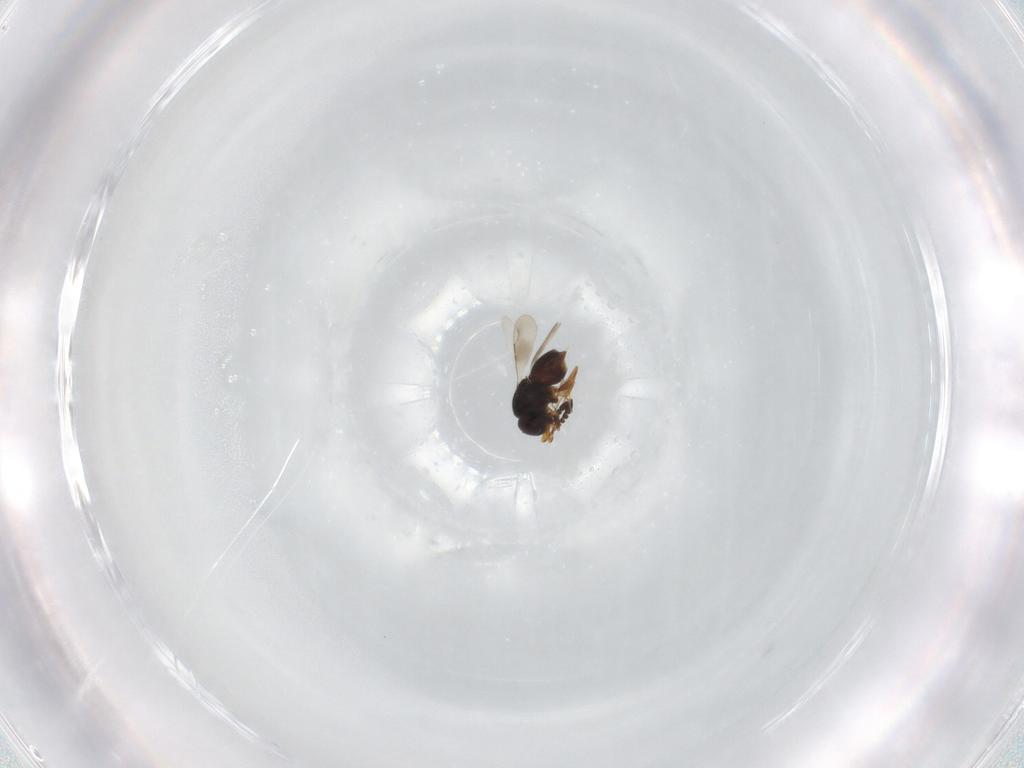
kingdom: Animalia
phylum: Arthropoda
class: Insecta
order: Hymenoptera
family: Ceraphronidae
